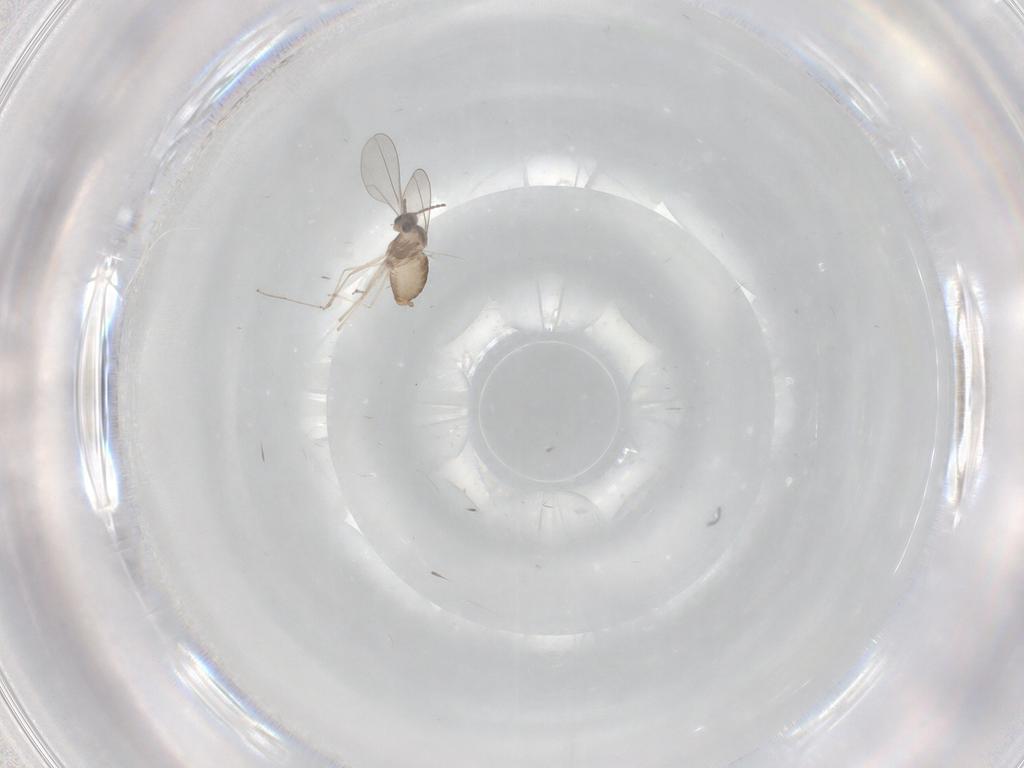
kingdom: Animalia
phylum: Arthropoda
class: Insecta
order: Diptera
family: Cecidomyiidae
